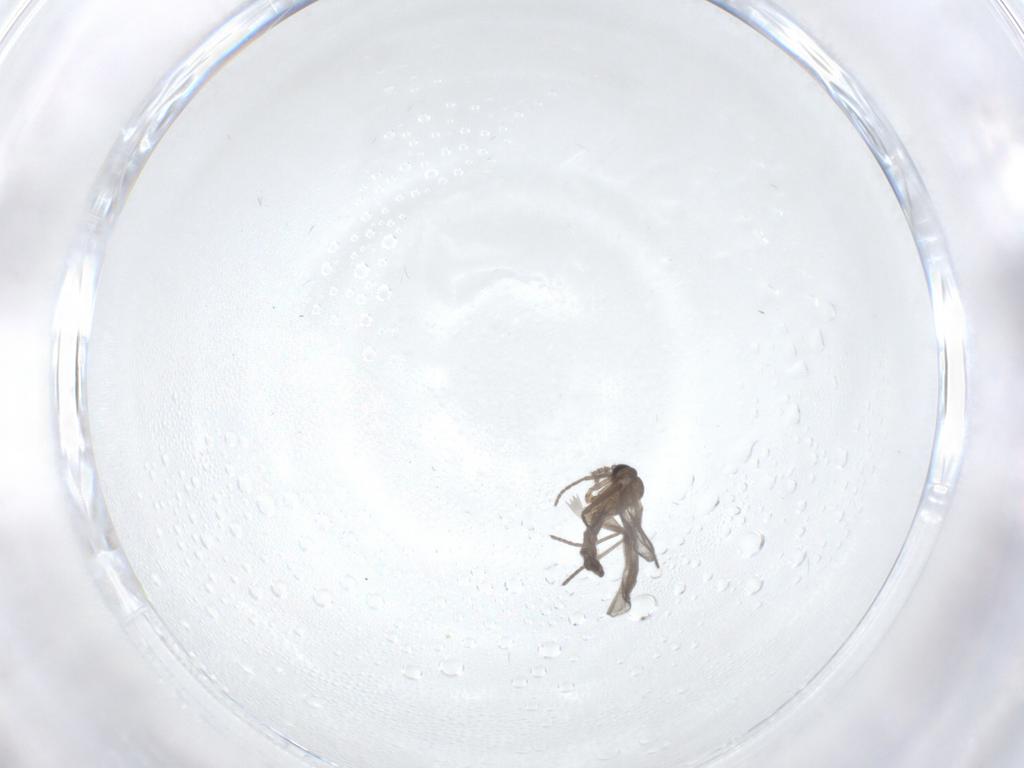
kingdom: Animalia
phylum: Arthropoda
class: Insecta
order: Diptera
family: Sciaridae
